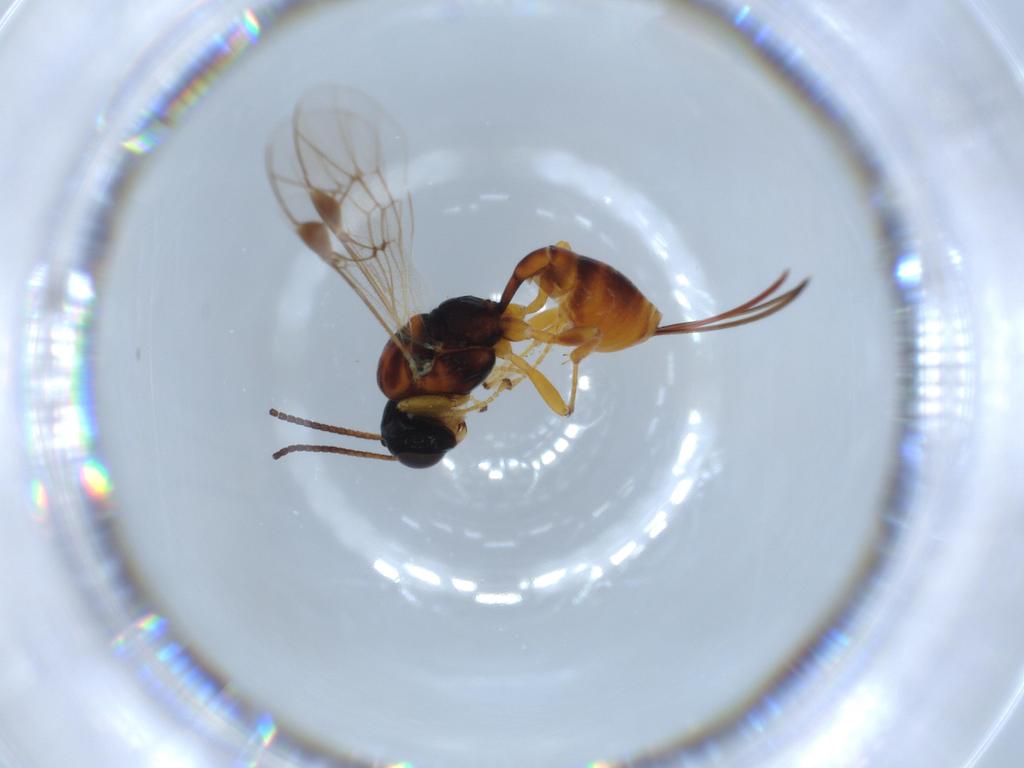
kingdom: Animalia
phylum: Arthropoda
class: Insecta
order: Hymenoptera
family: Ichneumonidae
